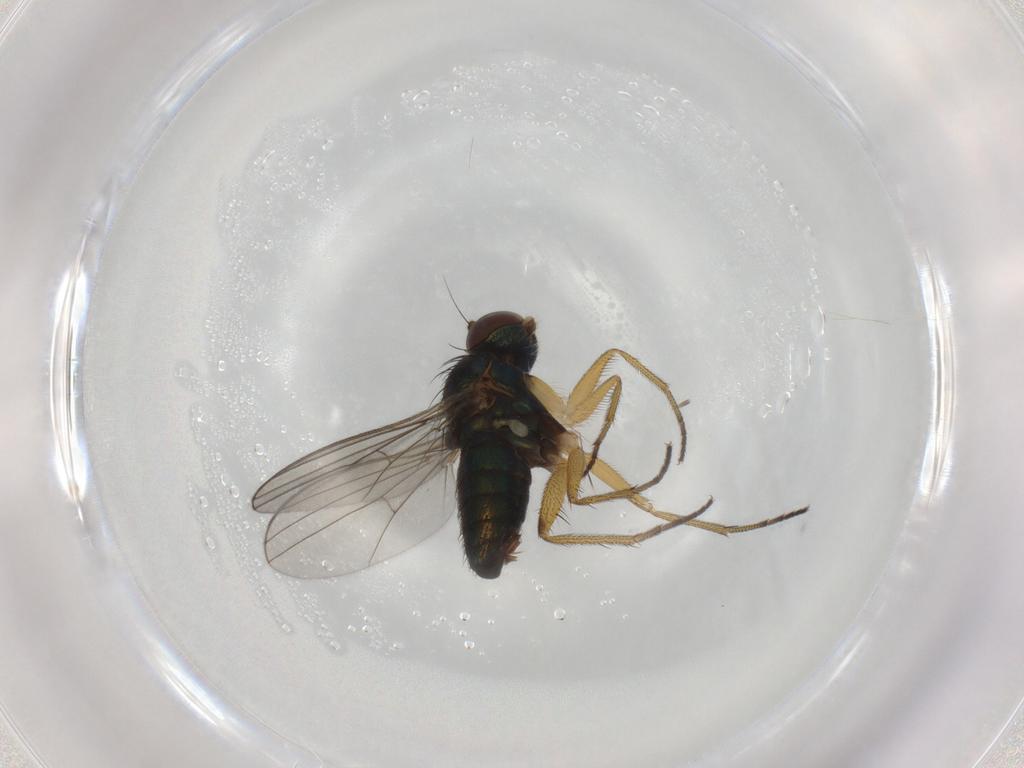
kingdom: Animalia
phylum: Arthropoda
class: Insecta
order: Diptera
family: Dolichopodidae
